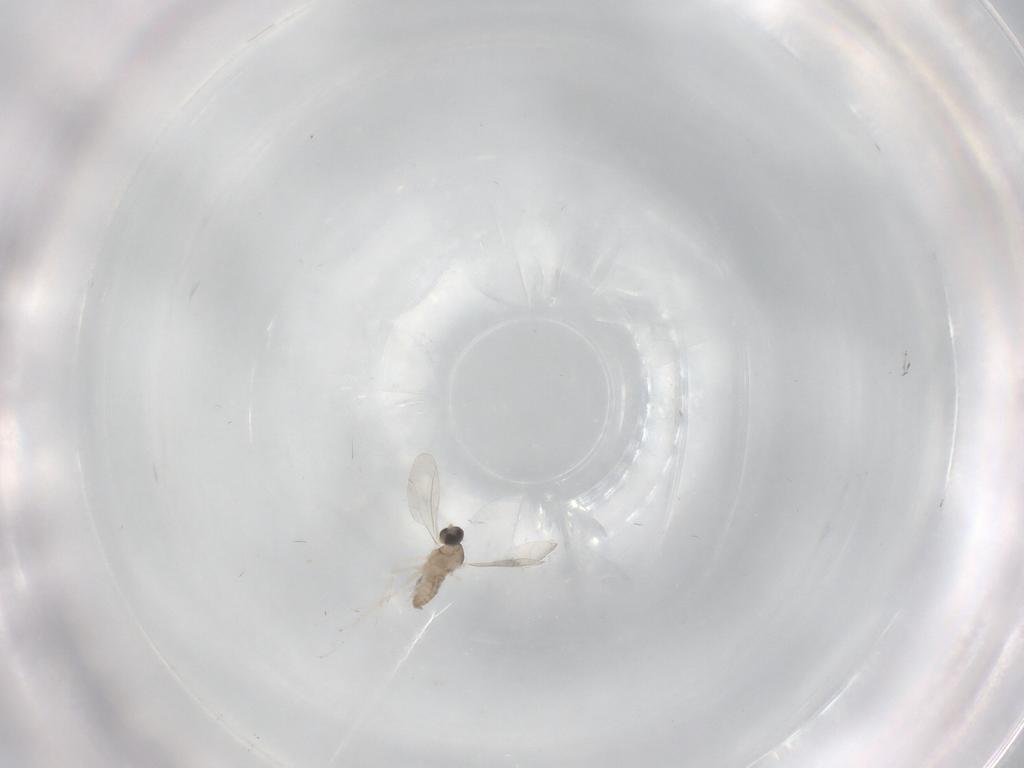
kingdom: Animalia
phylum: Arthropoda
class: Insecta
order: Diptera
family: Cecidomyiidae
